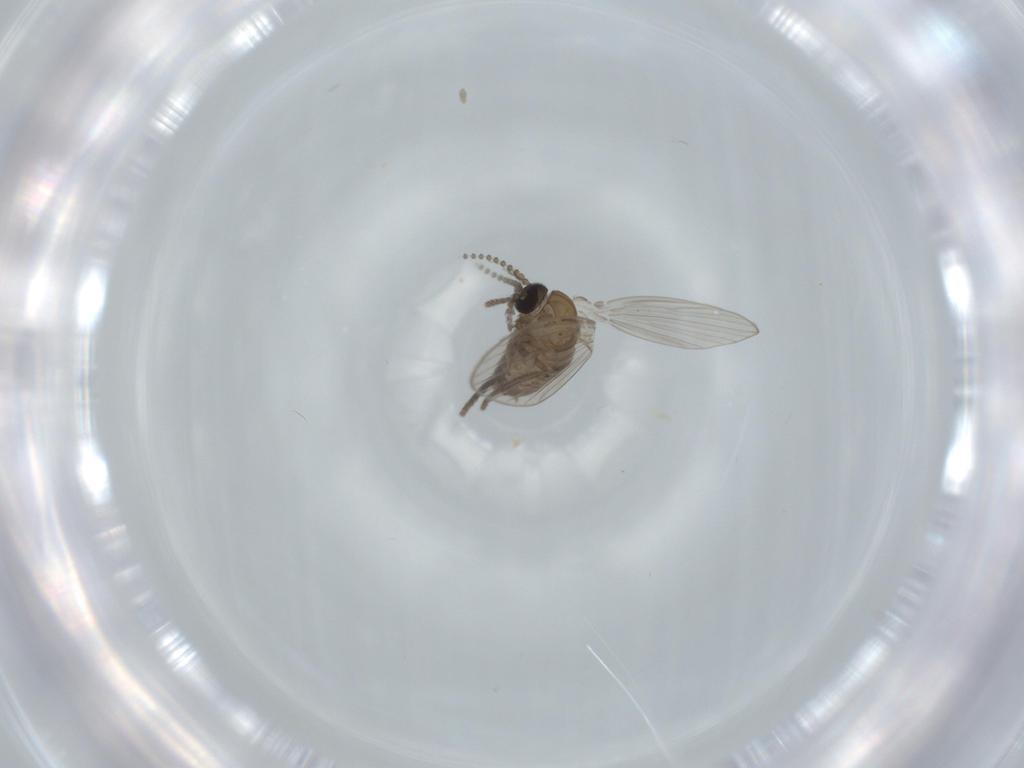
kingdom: Animalia
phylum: Arthropoda
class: Insecta
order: Diptera
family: Psychodidae
